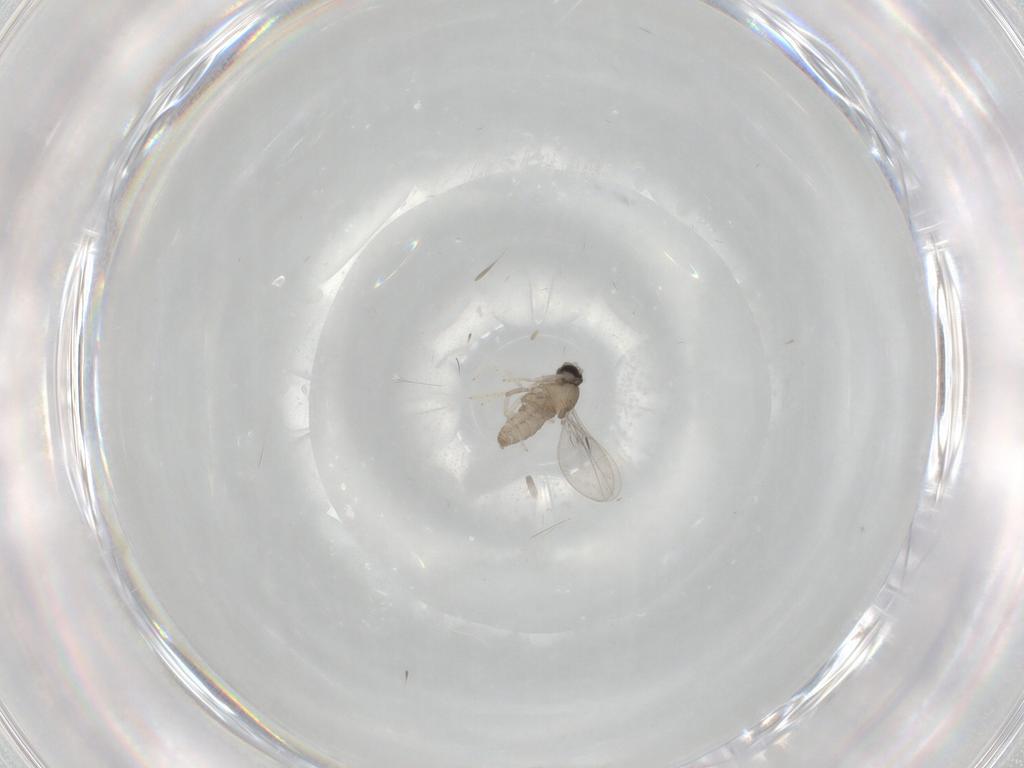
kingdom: Animalia
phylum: Arthropoda
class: Insecta
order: Diptera
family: Cecidomyiidae
